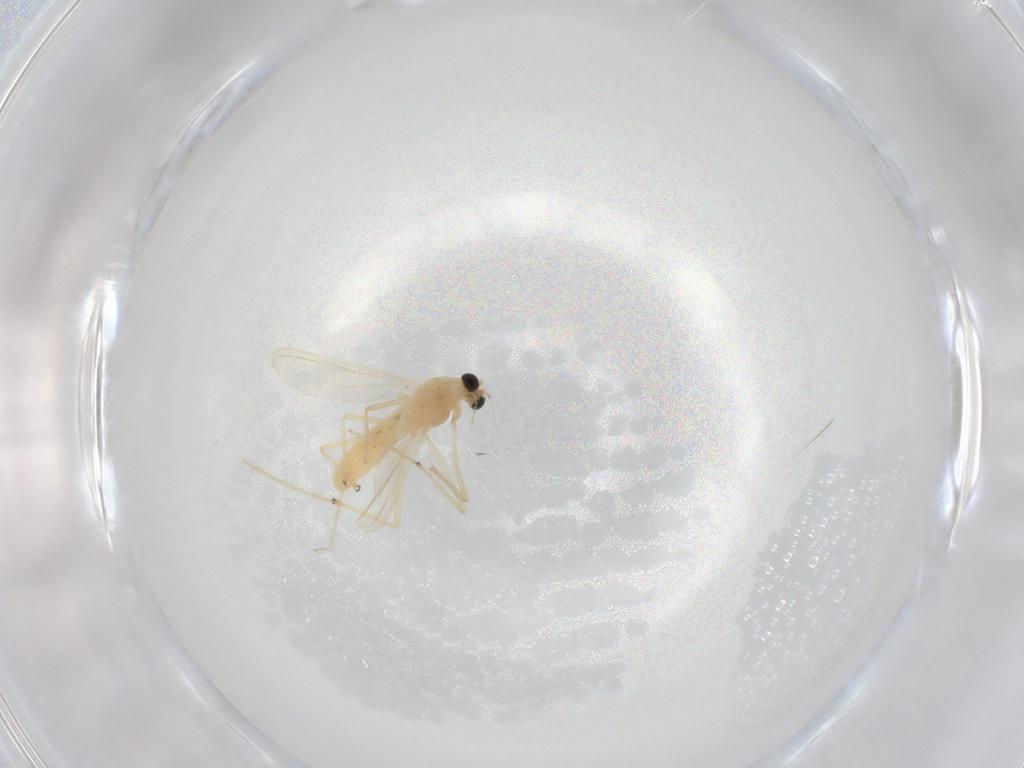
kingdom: Animalia
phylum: Arthropoda
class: Insecta
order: Diptera
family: Chironomidae
